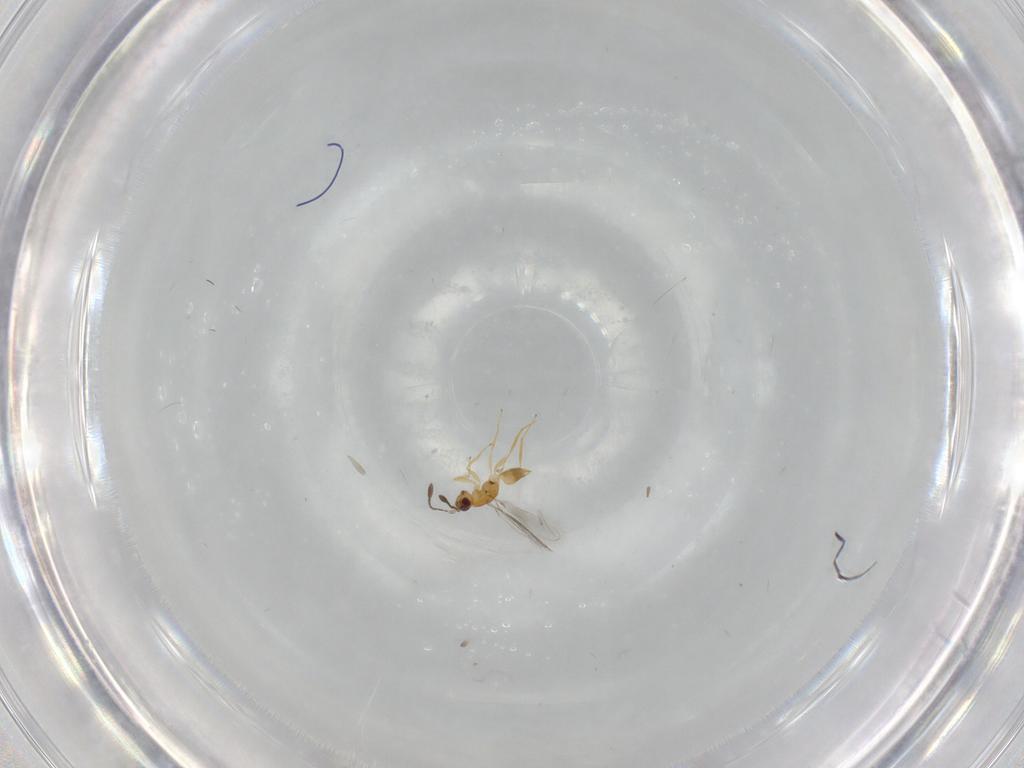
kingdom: Animalia
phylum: Arthropoda
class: Insecta
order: Hymenoptera
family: Mymaridae
